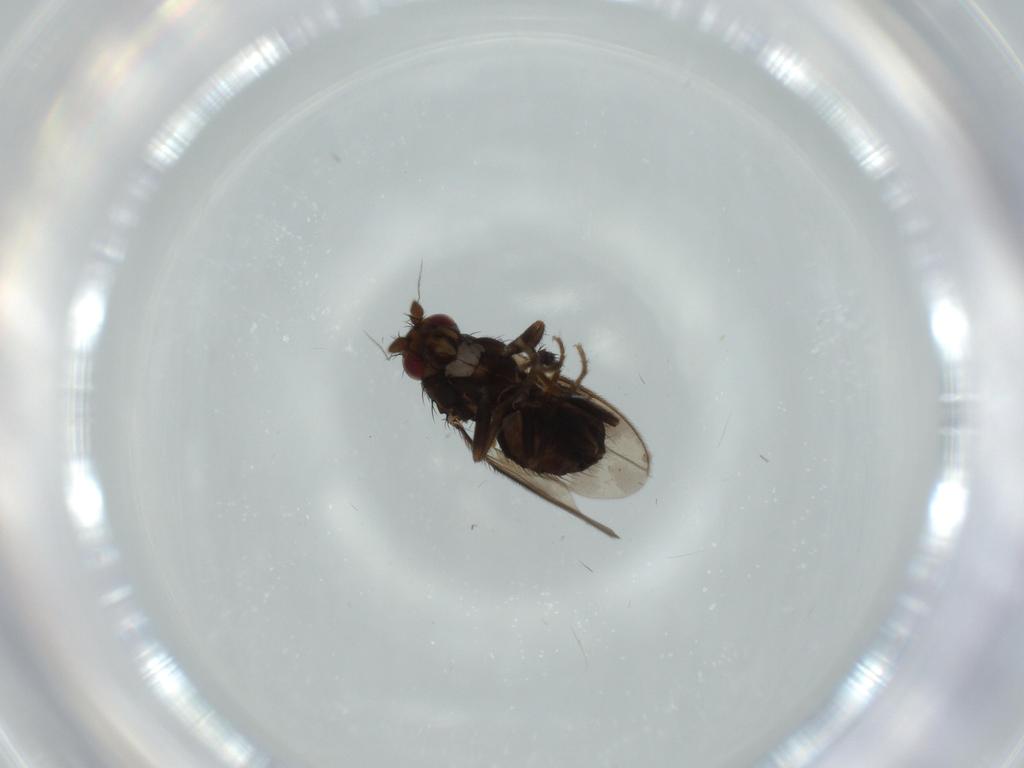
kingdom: Animalia
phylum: Arthropoda
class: Insecta
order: Diptera
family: Sphaeroceridae
